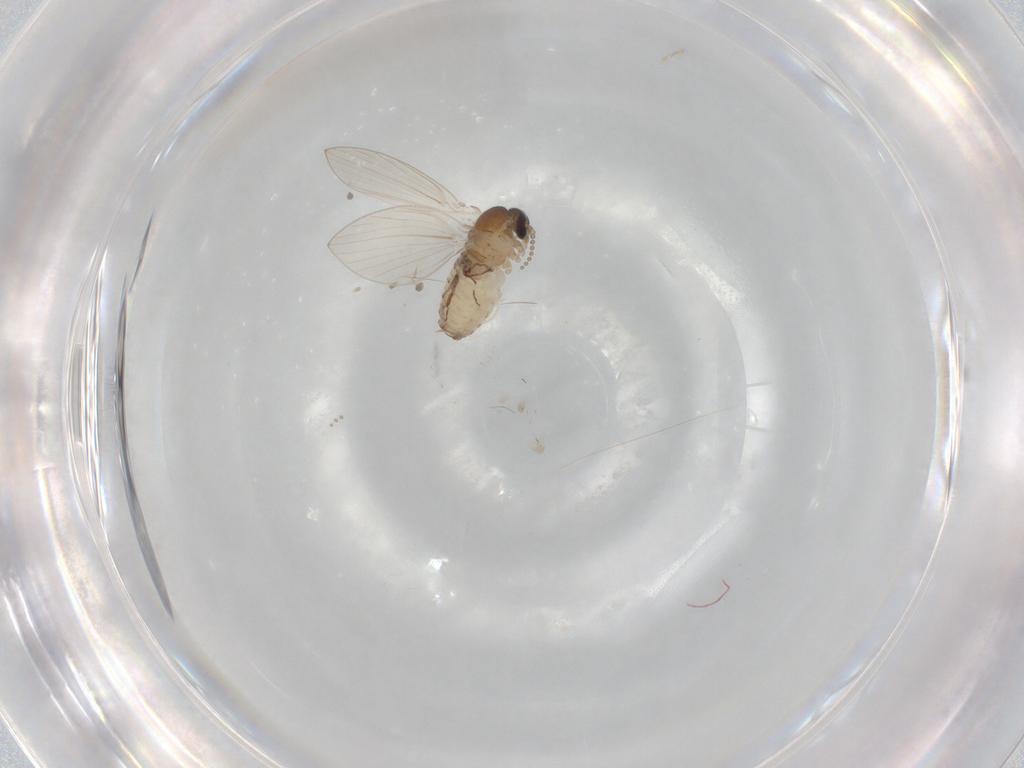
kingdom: Animalia
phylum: Arthropoda
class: Insecta
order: Diptera
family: Psychodidae
